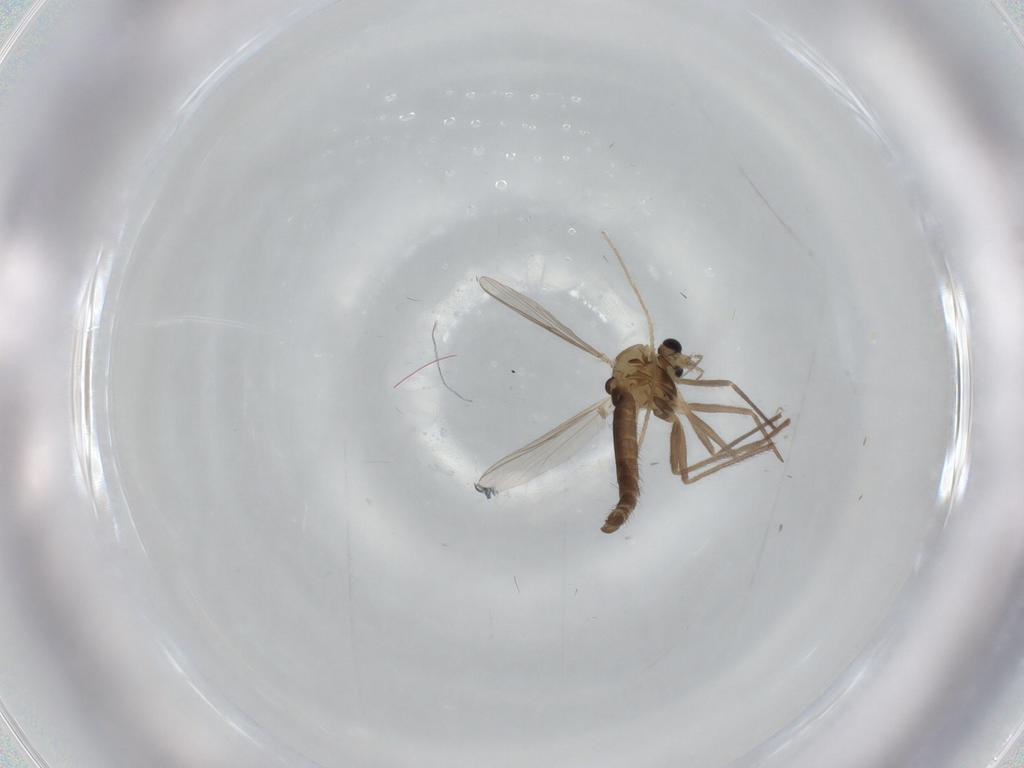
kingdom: Animalia
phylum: Arthropoda
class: Insecta
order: Diptera
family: Chironomidae
